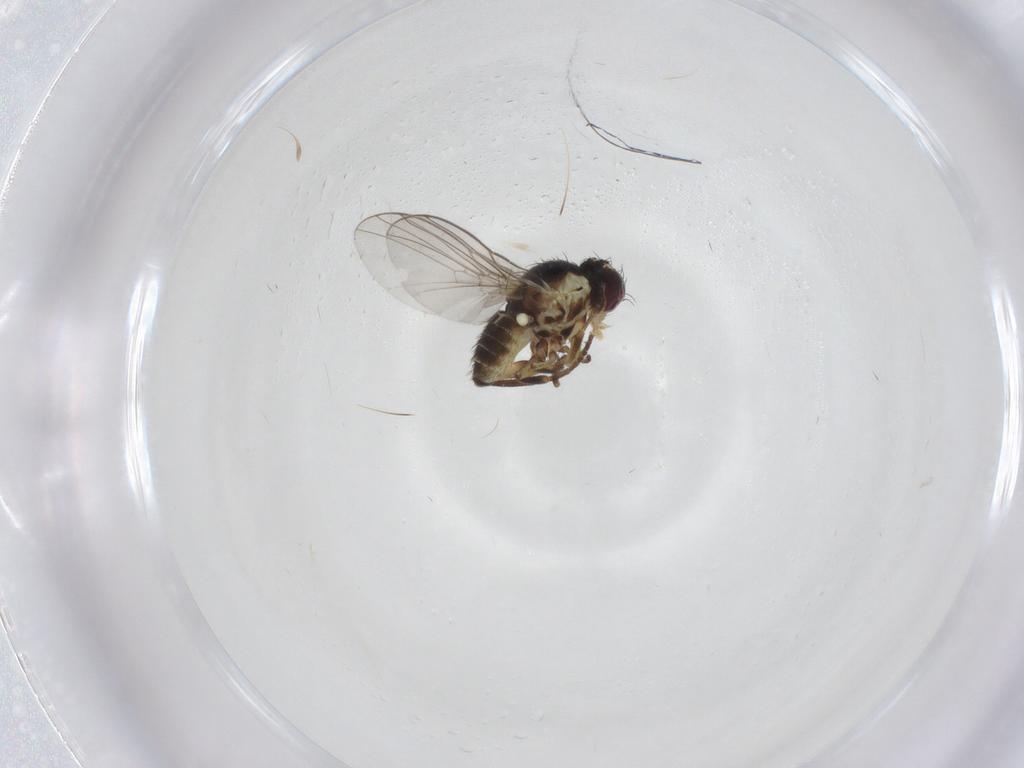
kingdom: Animalia
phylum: Arthropoda
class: Insecta
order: Diptera
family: Agromyzidae
